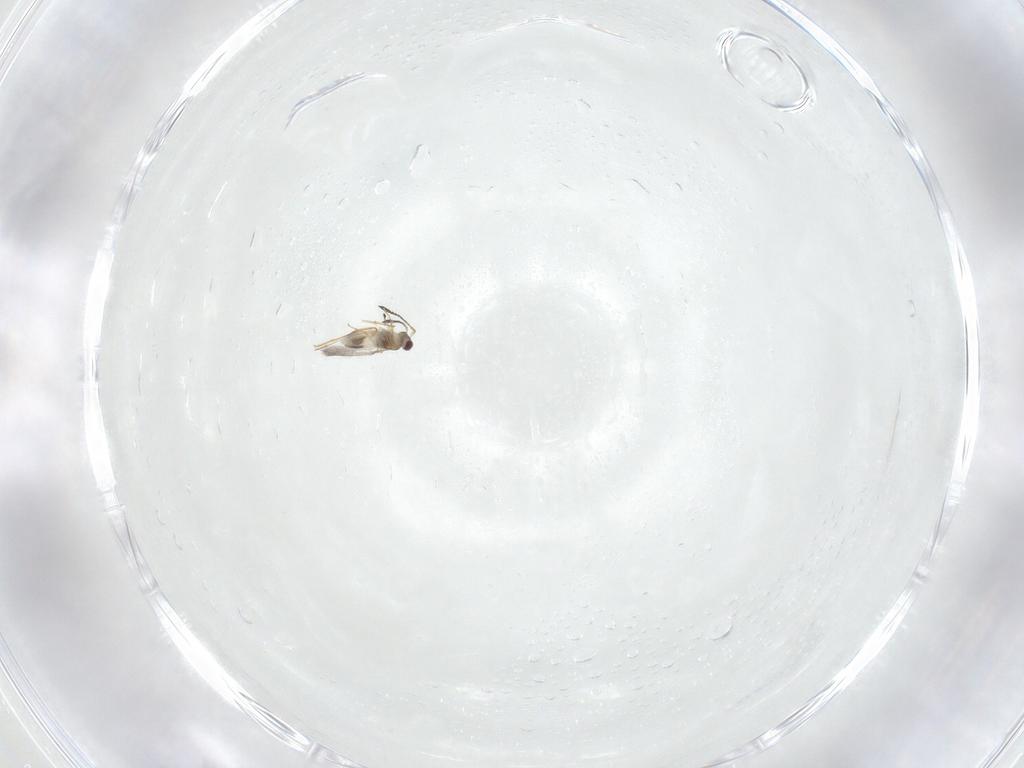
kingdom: Animalia
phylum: Arthropoda
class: Insecta
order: Hymenoptera
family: Mymaridae
